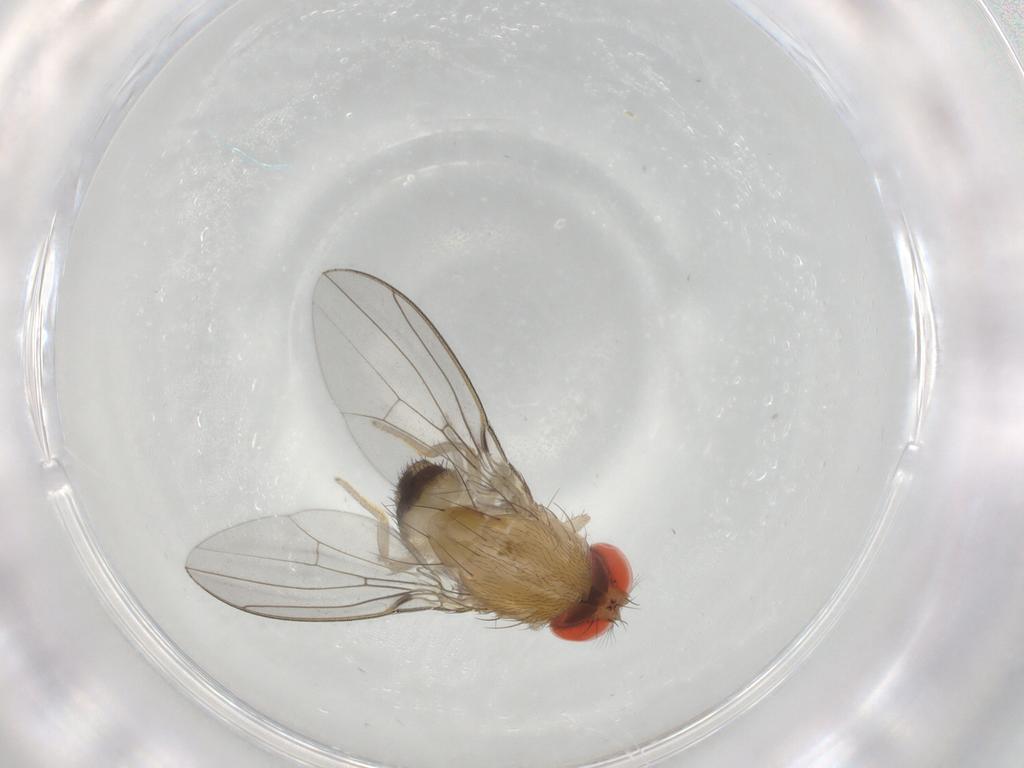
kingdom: Animalia
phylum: Arthropoda
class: Insecta
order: Diptera
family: Drosophilidae
